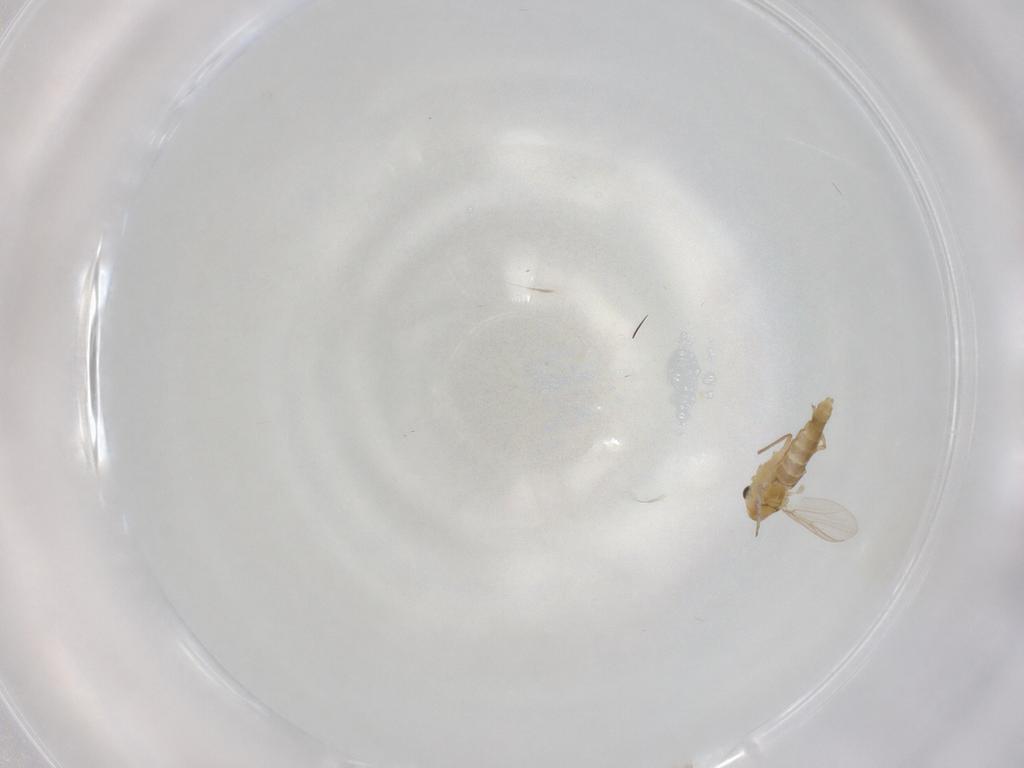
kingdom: Animalia
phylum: Arthropoda
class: Insecta
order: Diptera
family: Chironomidae
